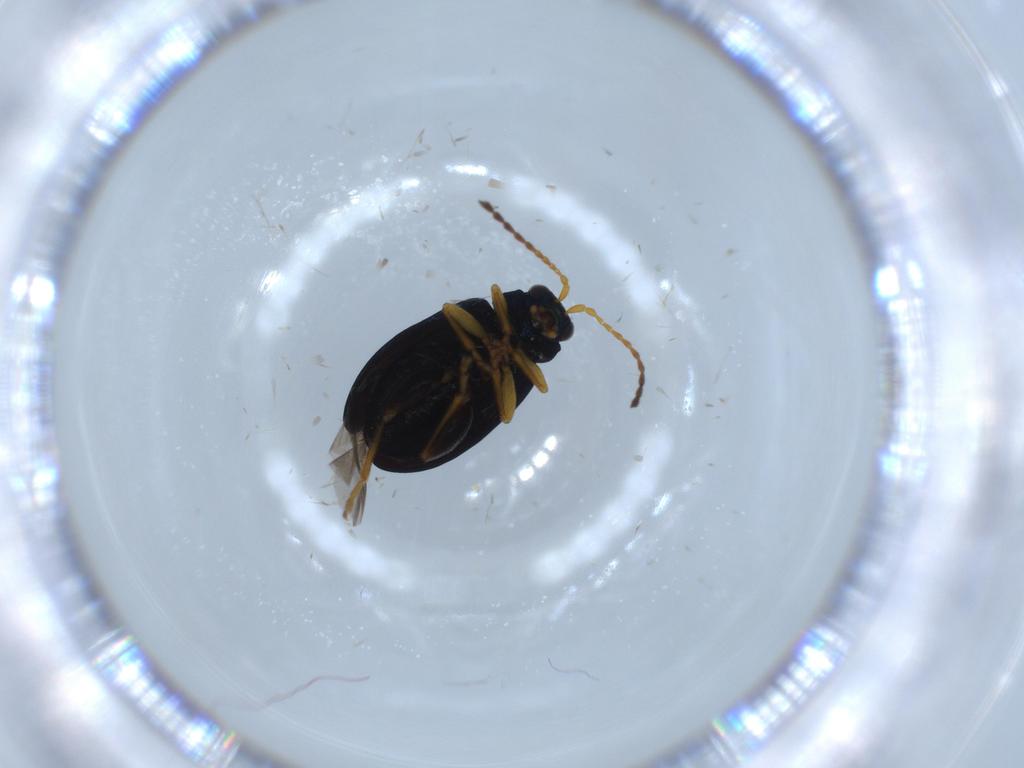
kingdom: Animalia
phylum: Arthropoda
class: Insecta
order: Coleoptera
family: Chrysomelidae
